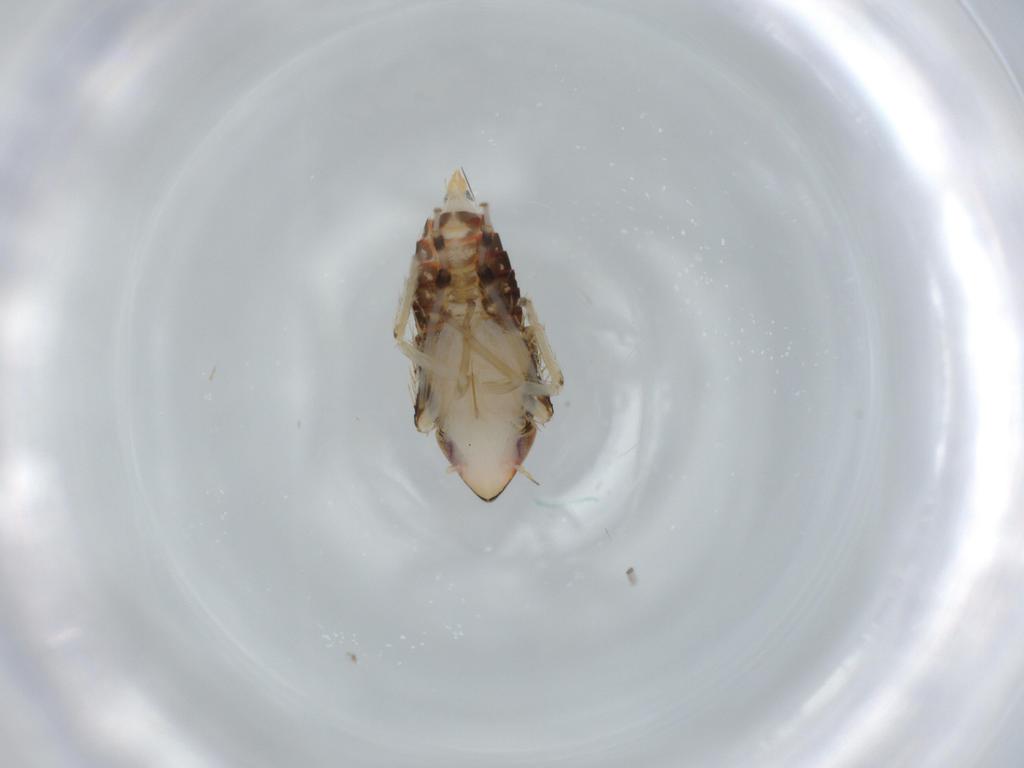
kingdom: Animalia
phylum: Arthropoda
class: Insecta
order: Hemiptera
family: Cicadellidae
